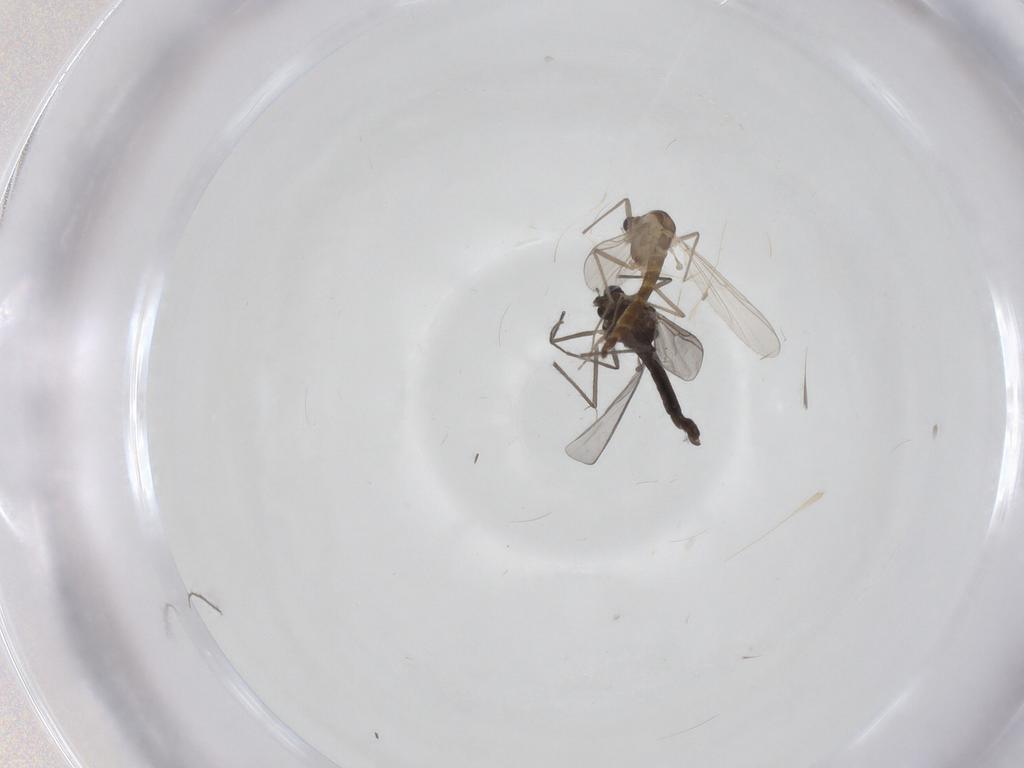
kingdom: Animalia
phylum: Arthropoda
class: Insecta
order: Diptera
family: Chironomidae
